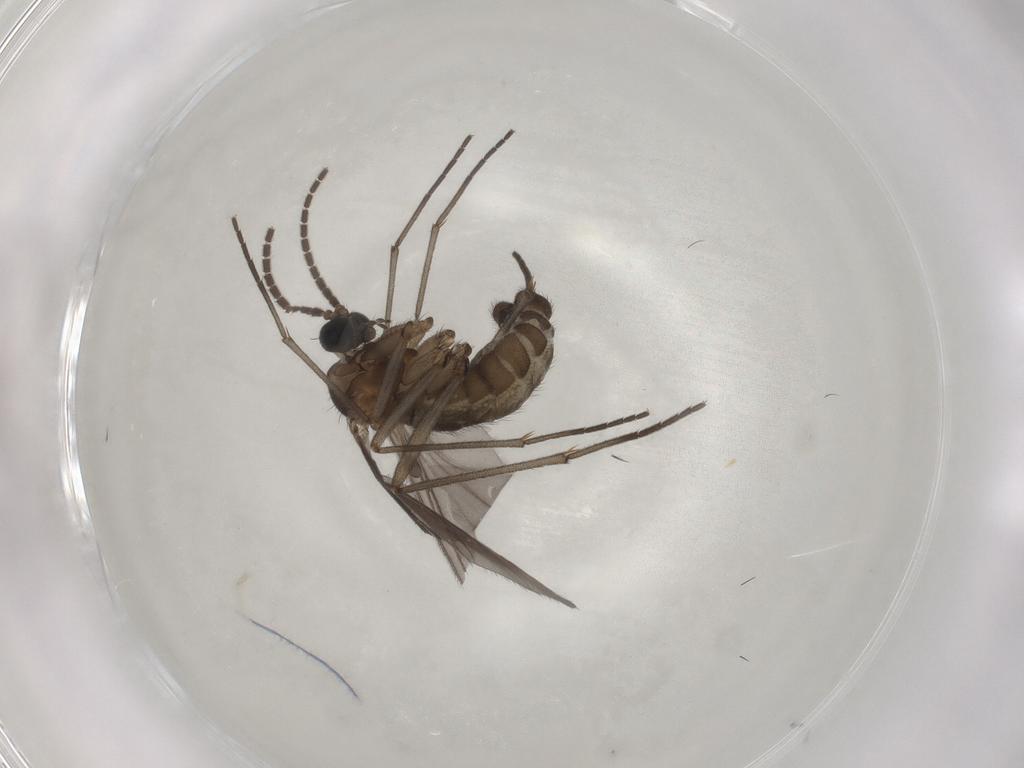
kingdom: Animalia
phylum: Arthropoda
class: Insecta
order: Diptera
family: Sciaridae
